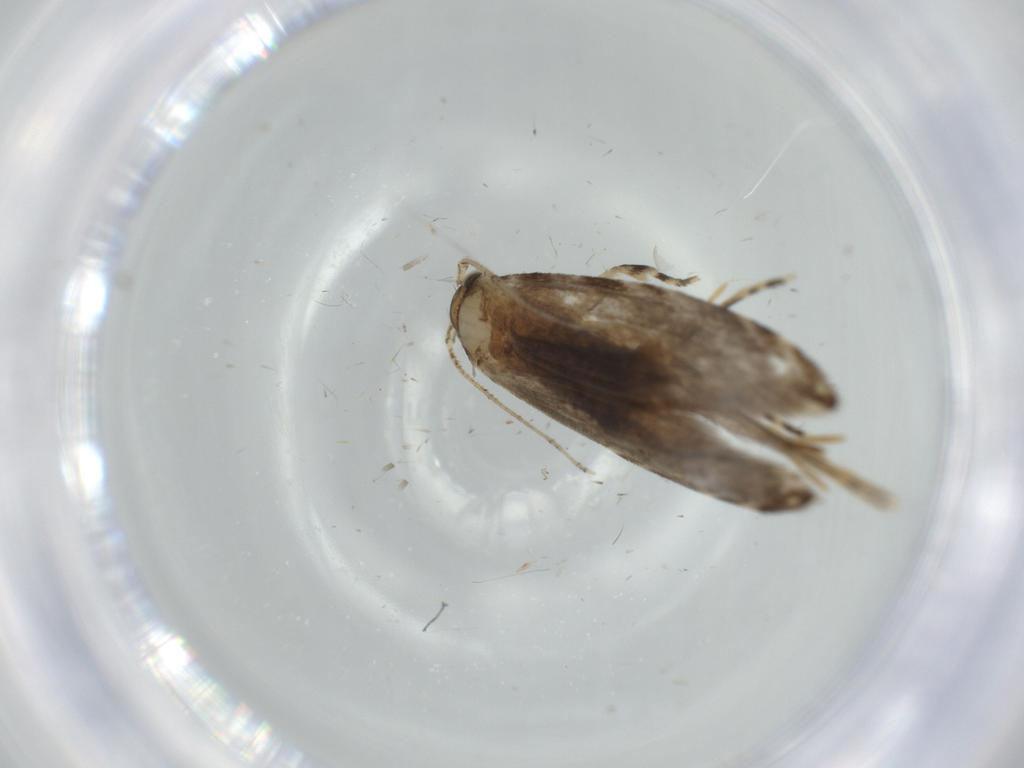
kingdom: Animalia
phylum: Arthropoda
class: Insecta
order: Lepidoptera
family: Tineidae
